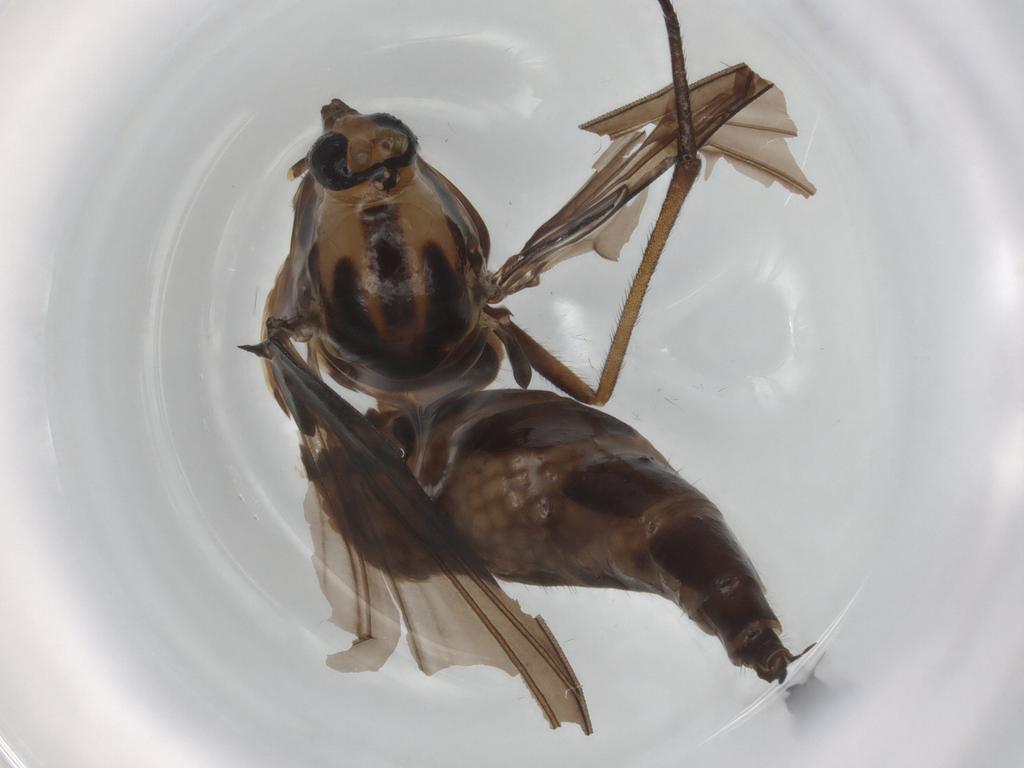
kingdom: Animalia
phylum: Arthropoda
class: Insecta
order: Diptera
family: Sciaridae
